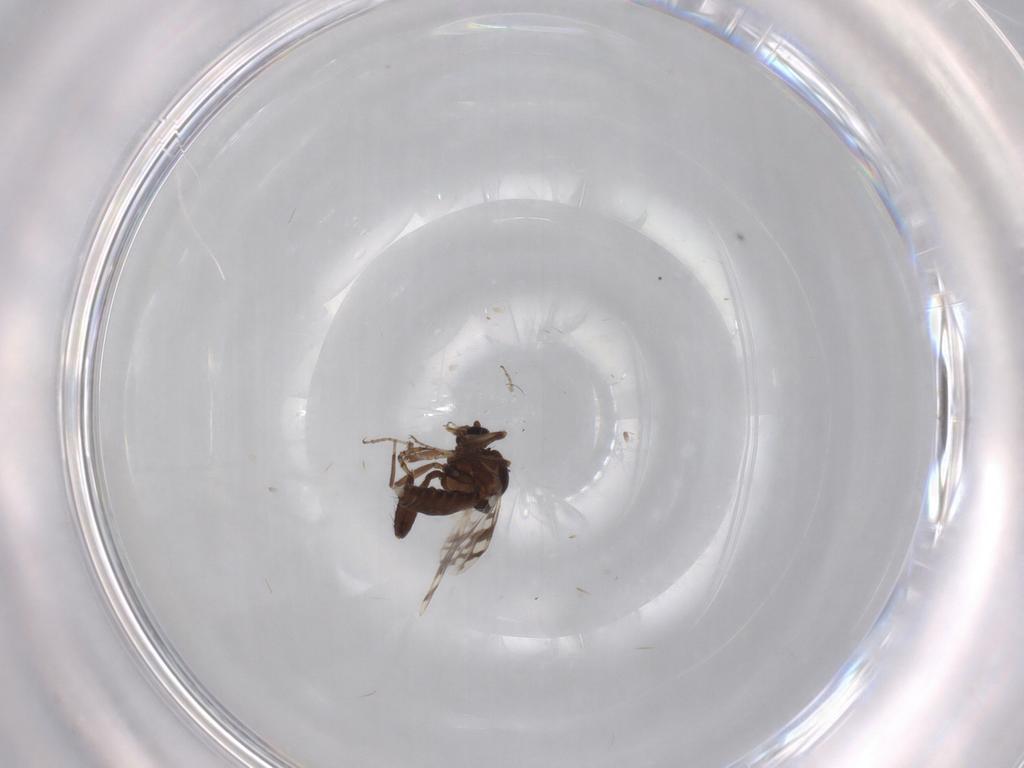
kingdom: Animalia
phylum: Arthropoda
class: Insecta
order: Diptera
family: Ceratopogonidae
